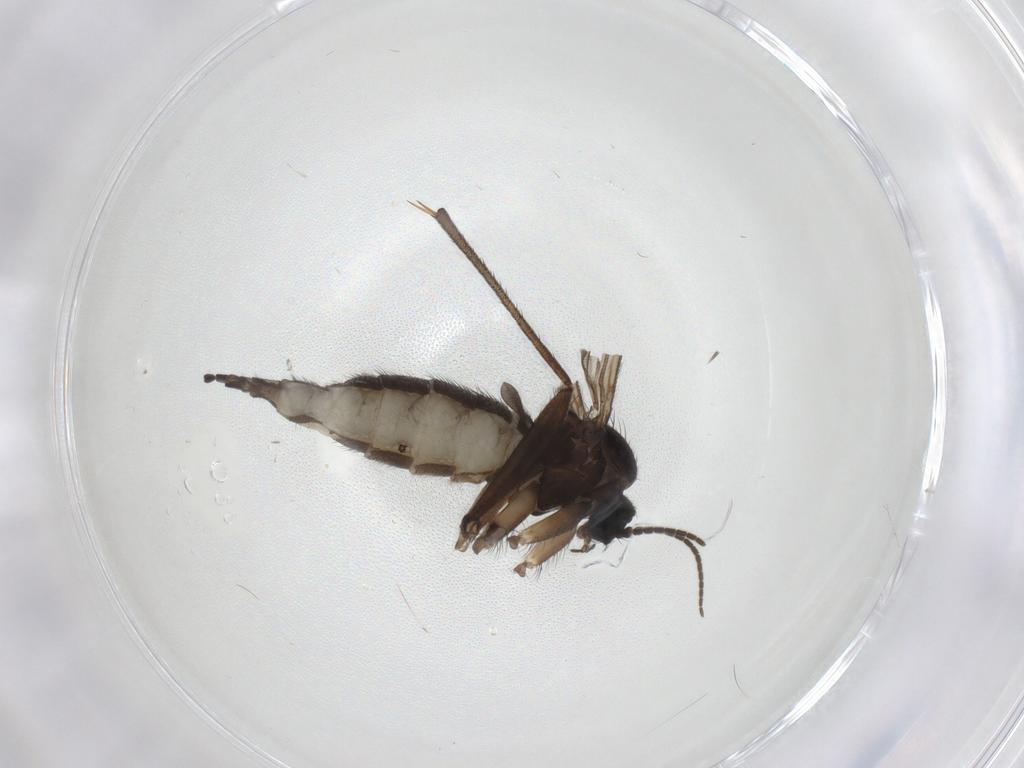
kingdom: Animalia
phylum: Arthropoda
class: Insecta
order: Diptera
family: Sciaridae
